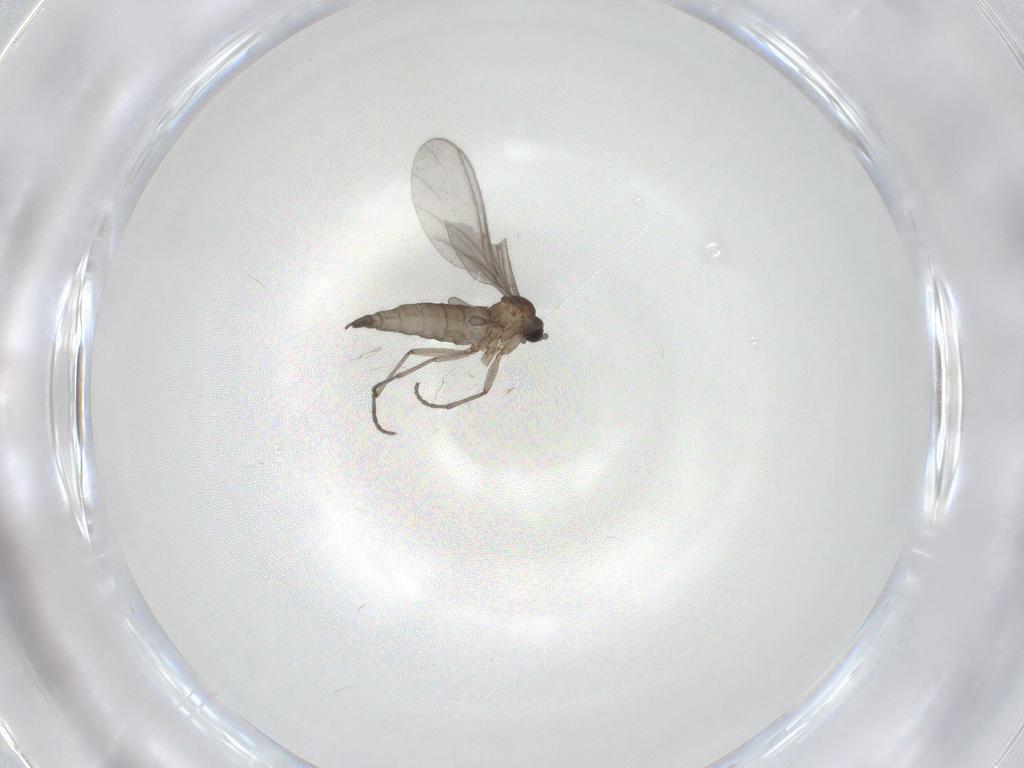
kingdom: Animalia
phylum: Arthropoda
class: Insecta
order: Diptera
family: Sciaridae
